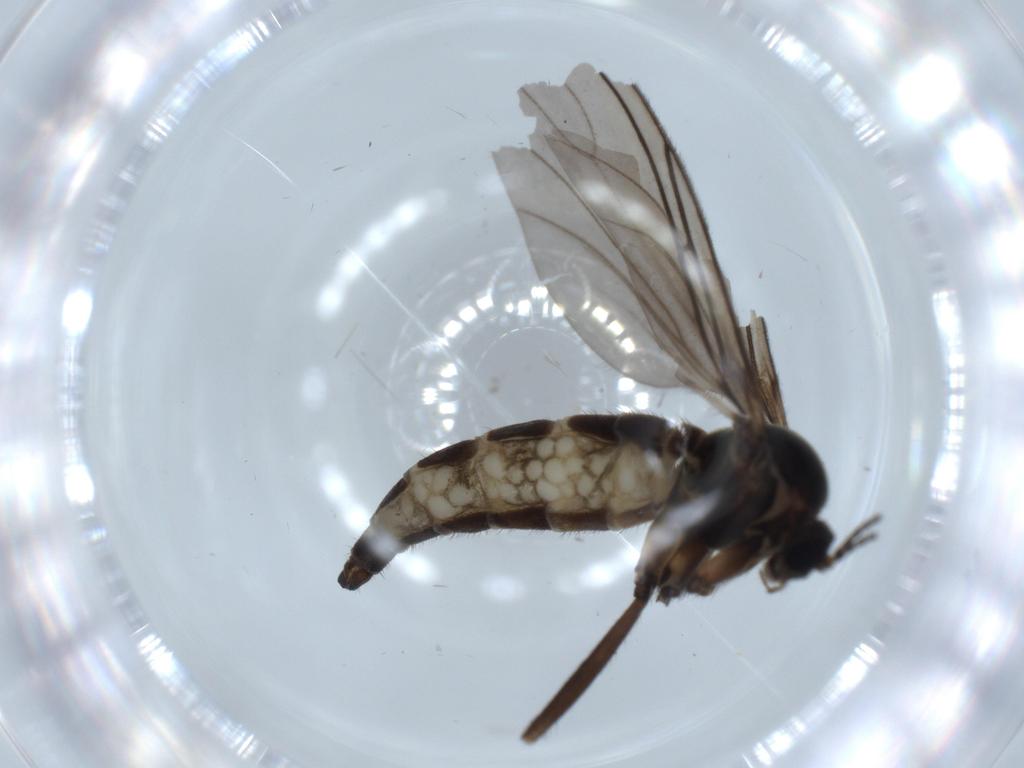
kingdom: Animalia
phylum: Arthropoda
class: Insecta
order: Diptera
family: Sciaridae
